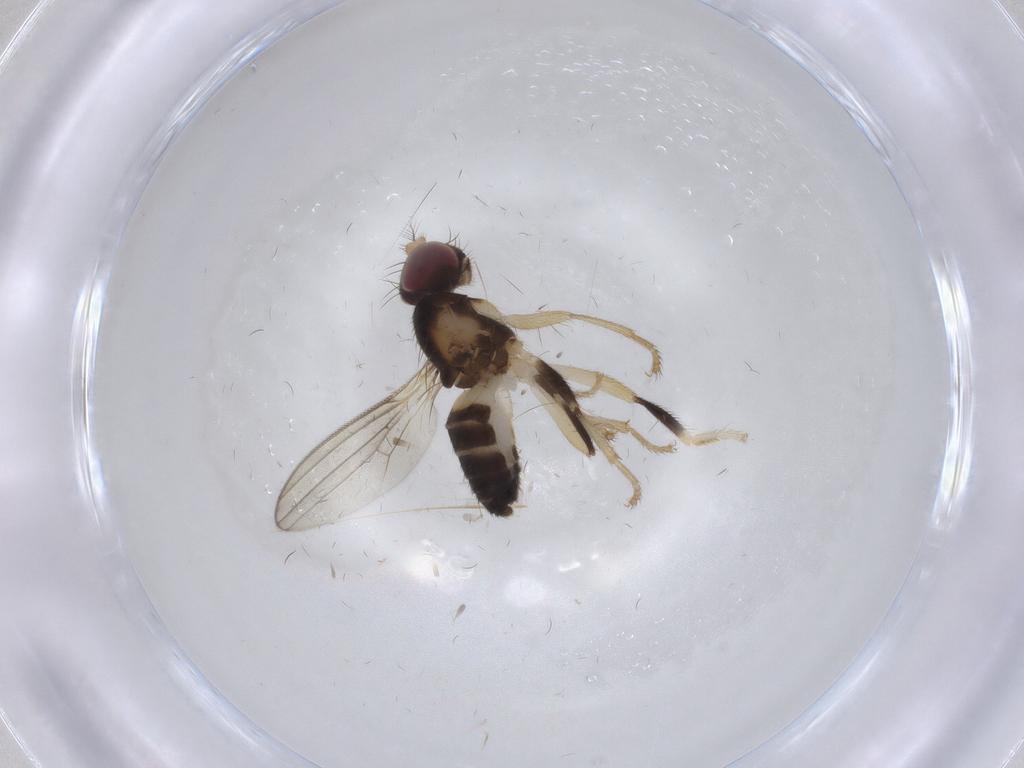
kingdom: Animalia
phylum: Arthropoda
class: Insecta
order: Diptera
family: Periscelididae
